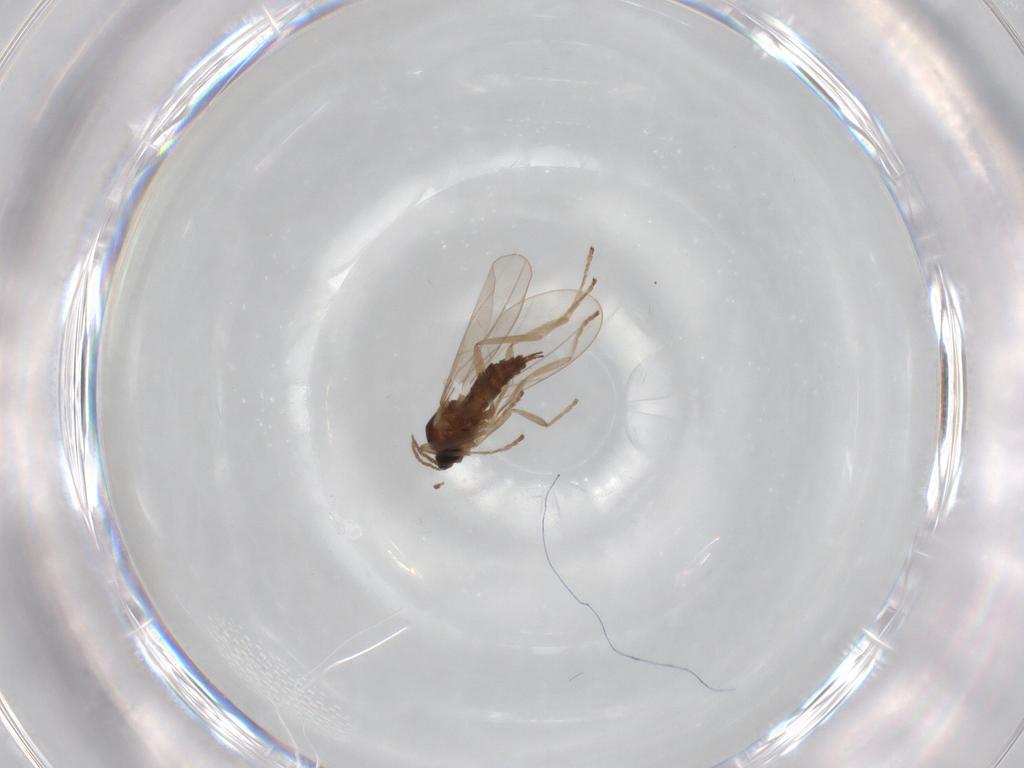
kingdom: Animalia
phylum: Arthropoda
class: Insecta
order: Diptera
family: Cecidomyiidae
